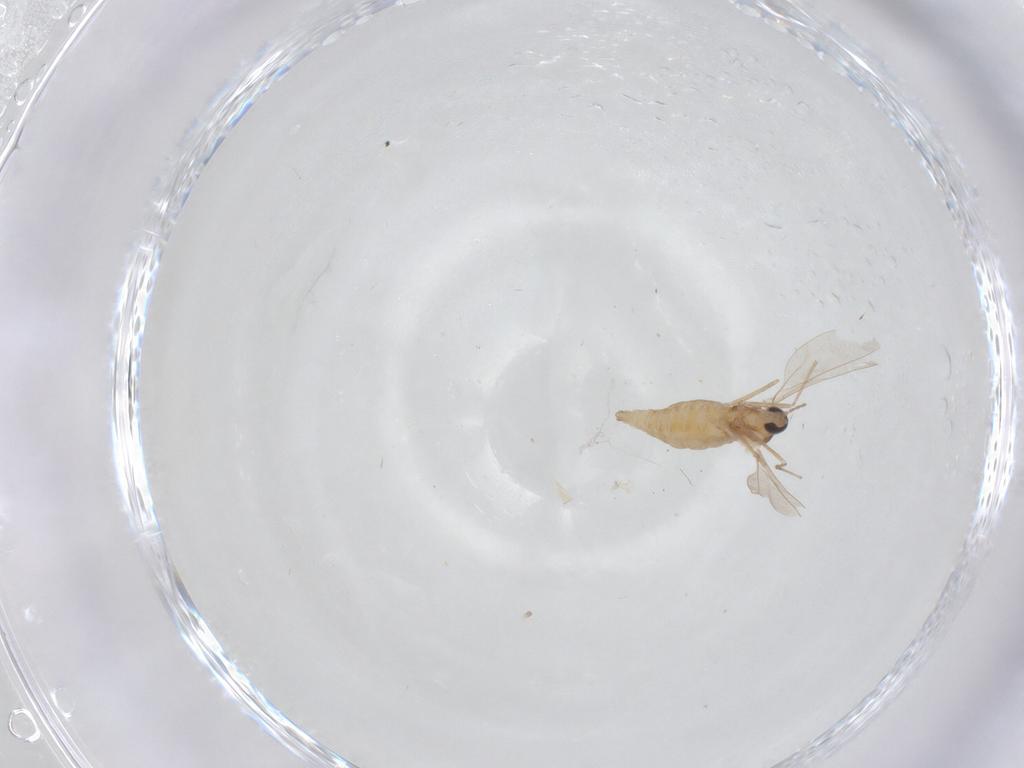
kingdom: Animalia
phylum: Arthropoda
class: Insecta
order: Diptera
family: Cecidomyiidae
